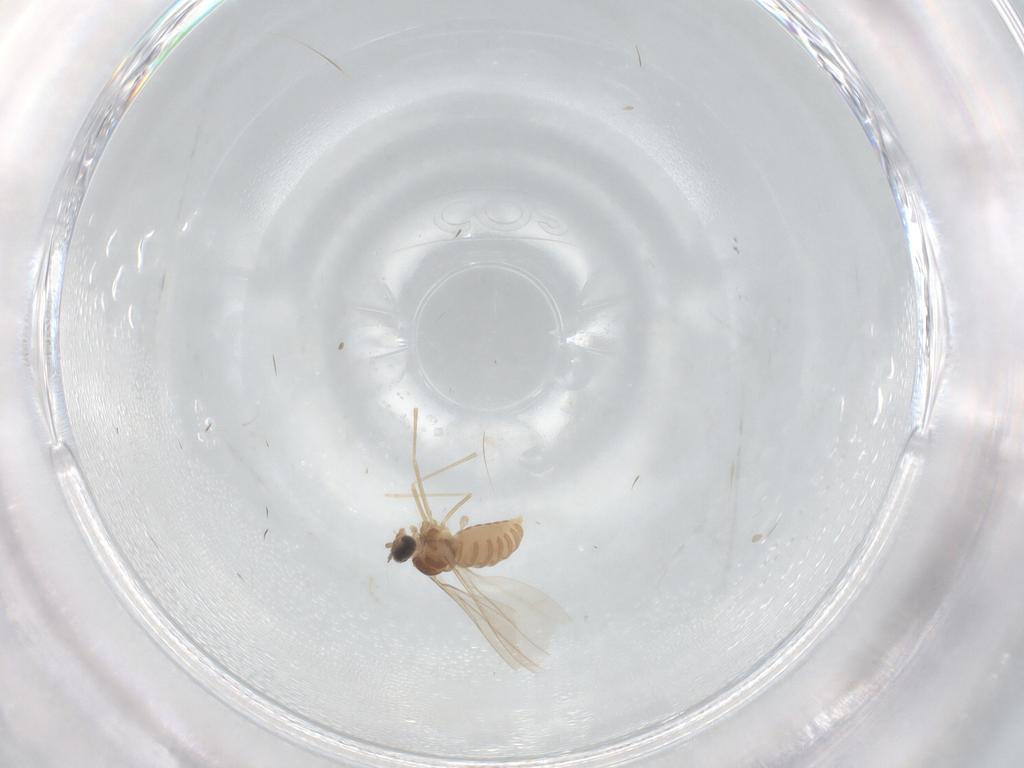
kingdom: Animalia
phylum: Arthropoda
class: Insecta
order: Diptera
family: Cecidomyiidae
